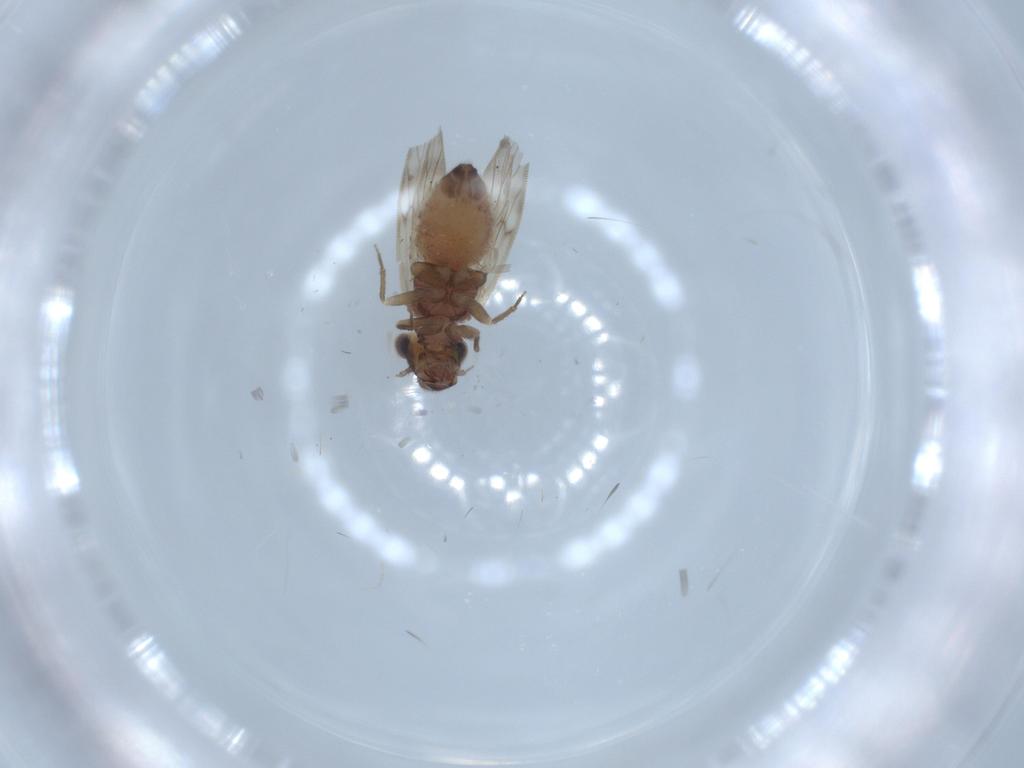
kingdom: Animalia
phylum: Arthropoda
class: Insecta
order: Psocodea
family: Lepidopsocidae
